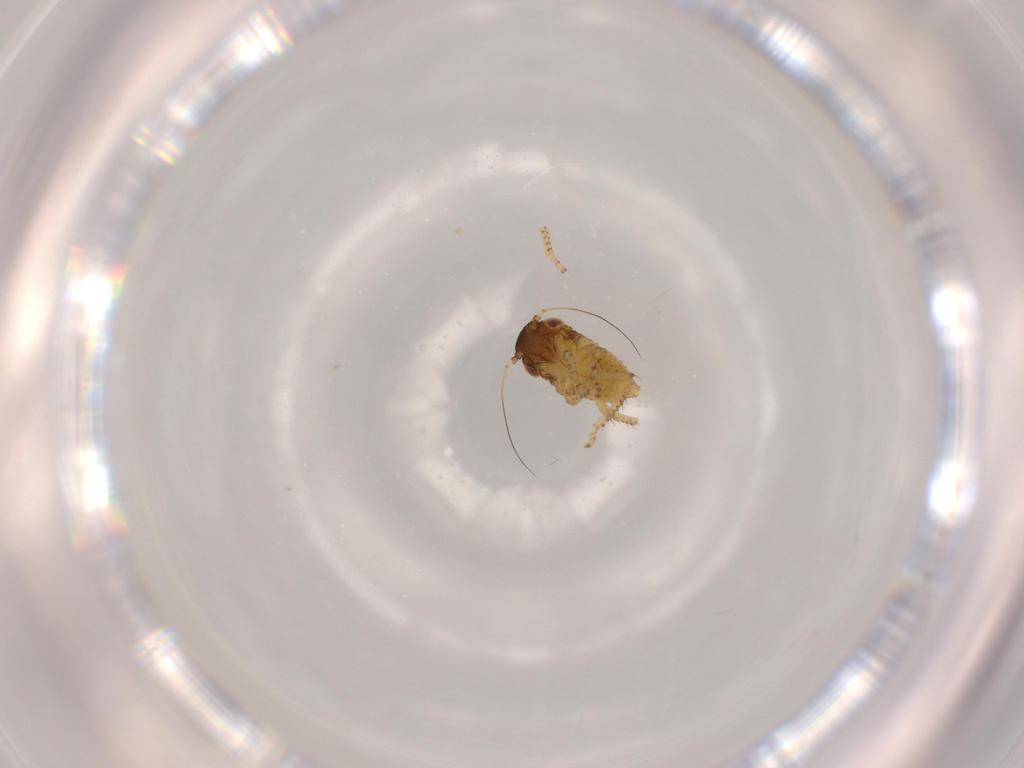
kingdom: Animalia
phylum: Arthropoda
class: Insecta
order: Hemiptera
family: Cicadellidae
